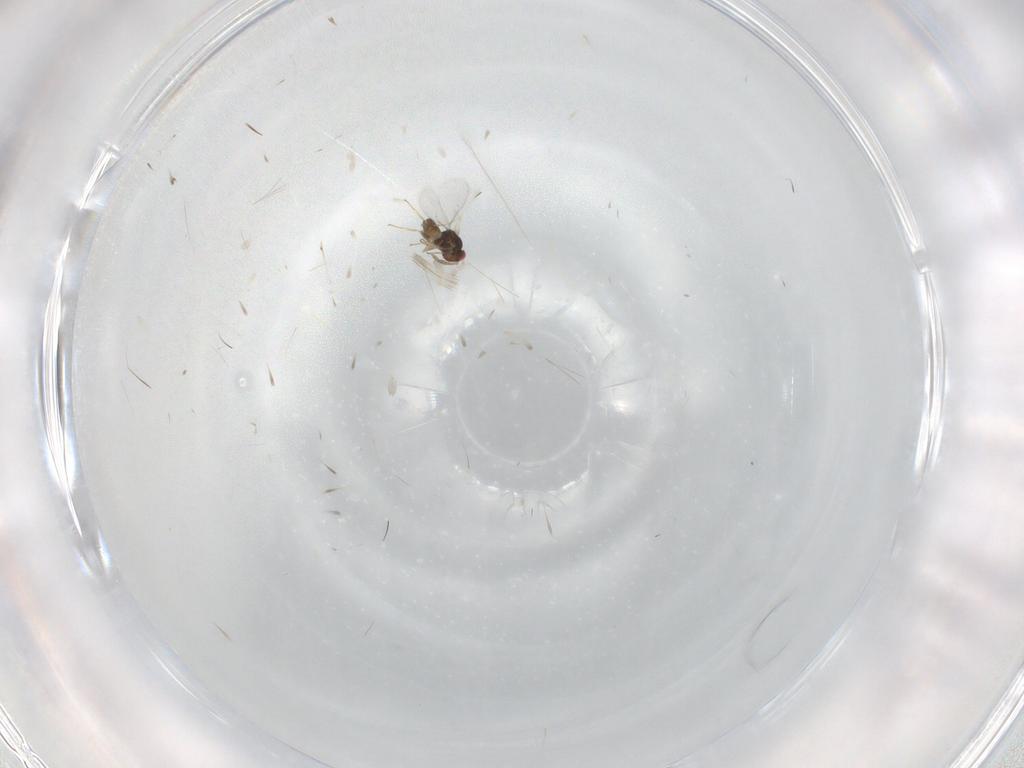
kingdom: Animalia
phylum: Arthropoda
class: Insecta
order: Hymenoptera
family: Eulophidae
